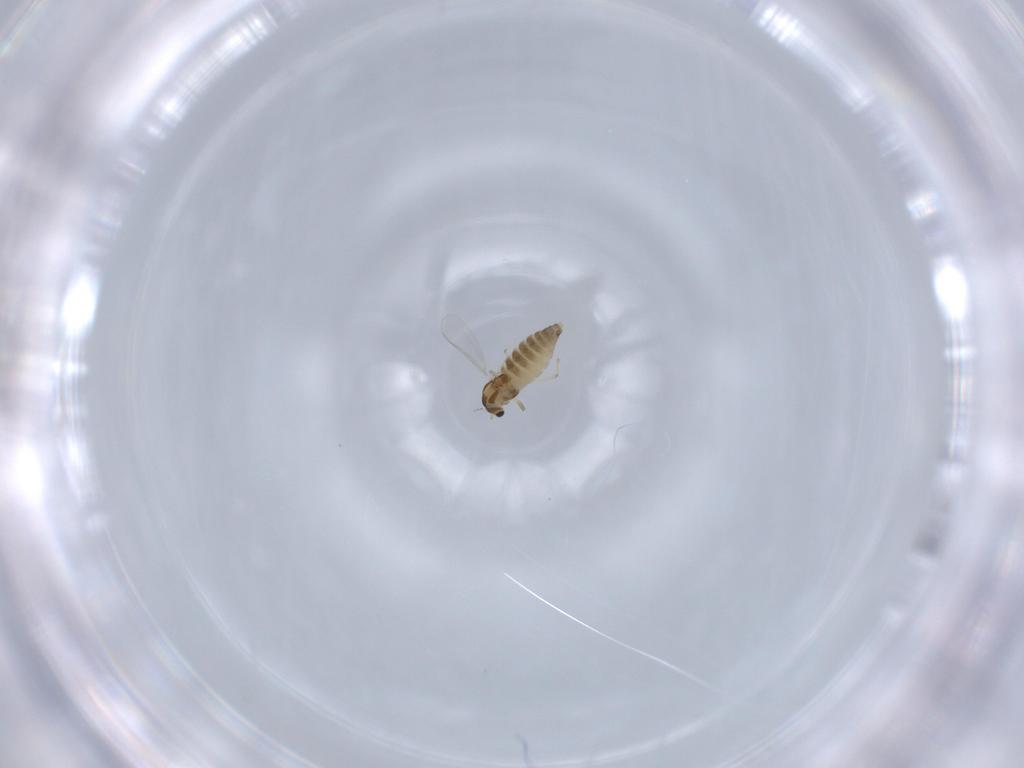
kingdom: Animalia
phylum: Arthropoda
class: Insecta
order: Diptera
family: Chironomidae
